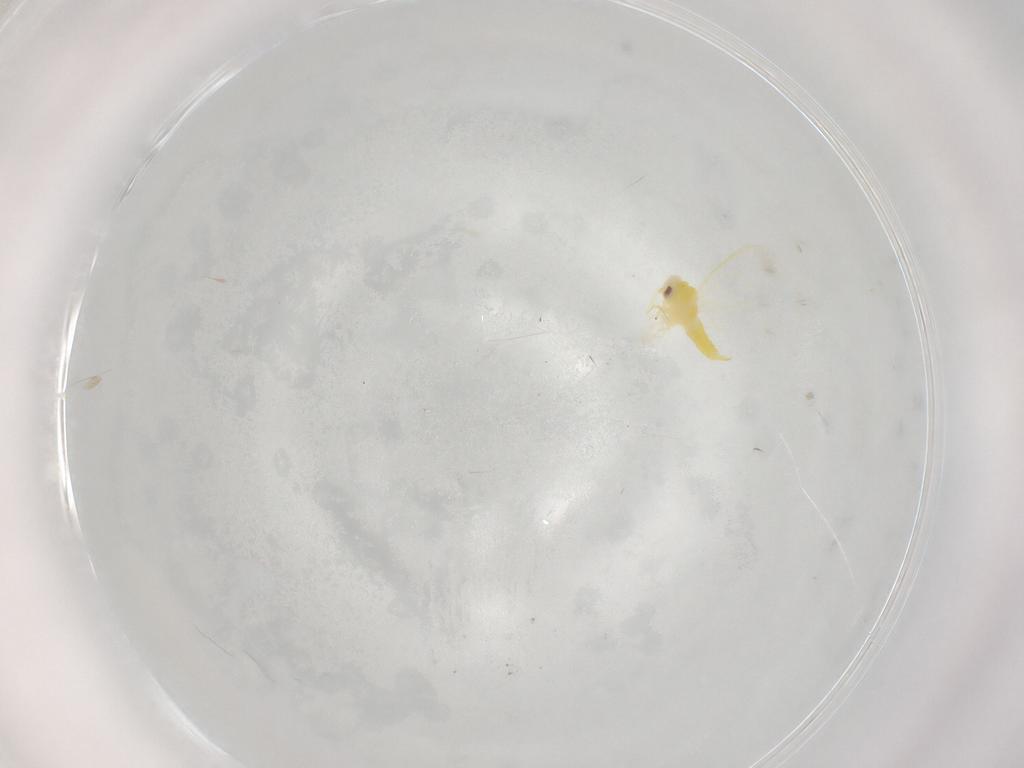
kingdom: Animalia
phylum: Arthropoda
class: Insecta
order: Hemiptera
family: Aleyrodidae
